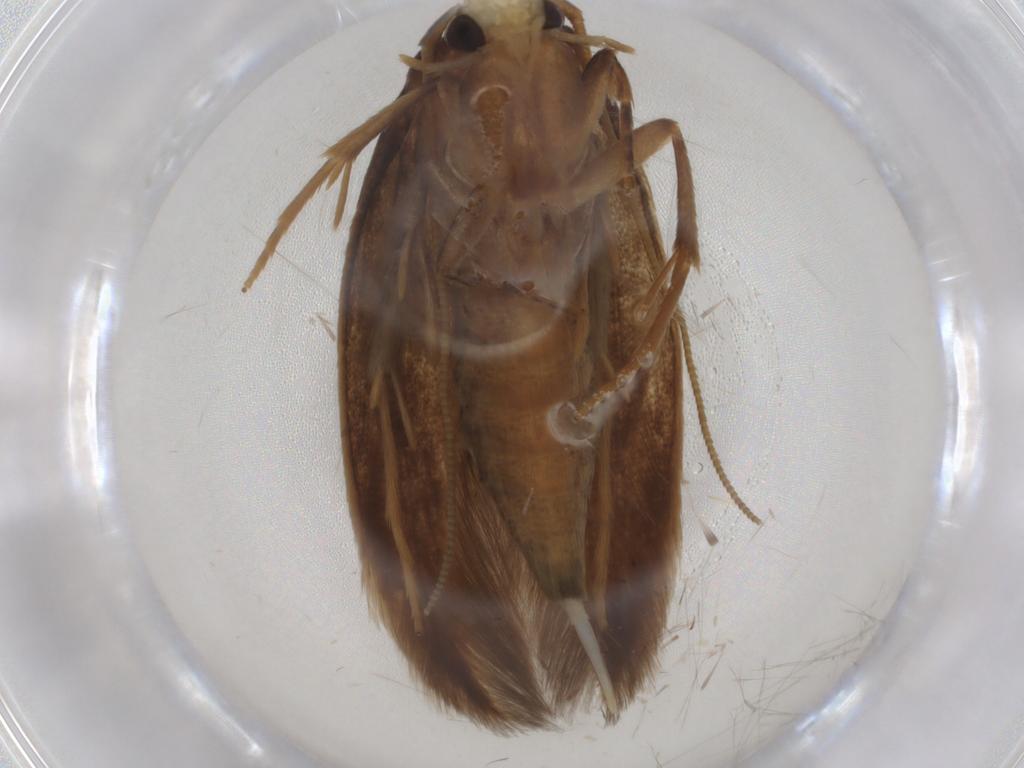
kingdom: Animalia
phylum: Arthropoda
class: Insecta
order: Lepidoptera
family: Pyralidae
